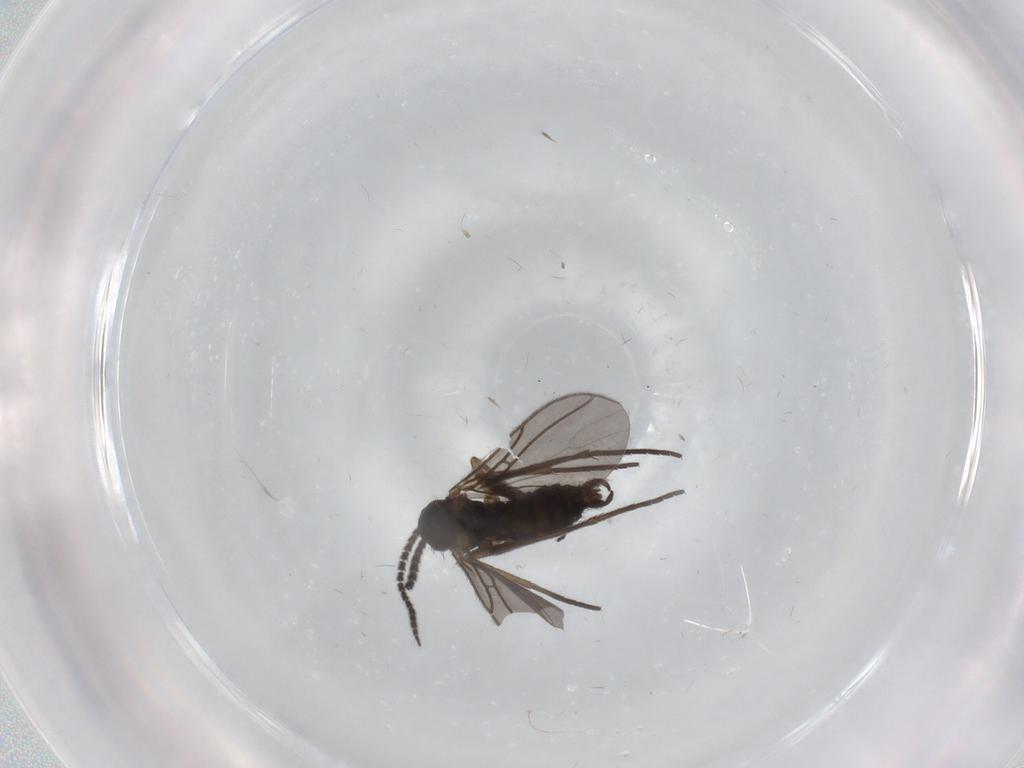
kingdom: Animalia
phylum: Arthropoda
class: Insecta
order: Diptera
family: Sciaridae
